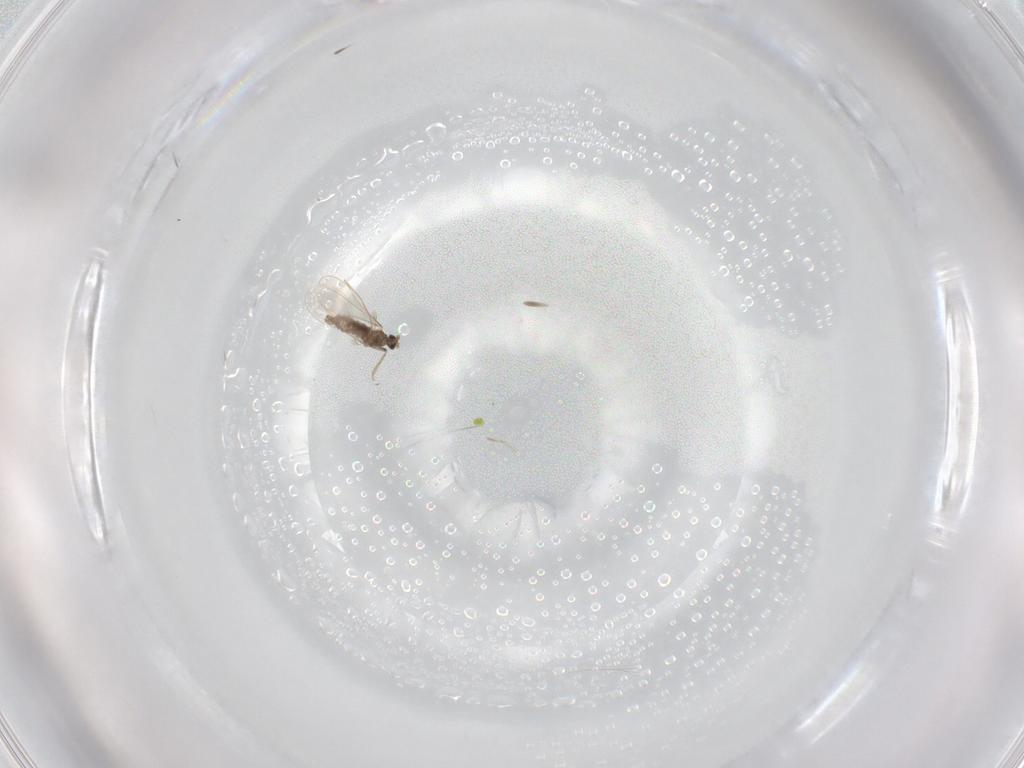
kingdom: Animalia
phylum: Arthropoda
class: Insecta
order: Diptera
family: Cecidomyiidae
